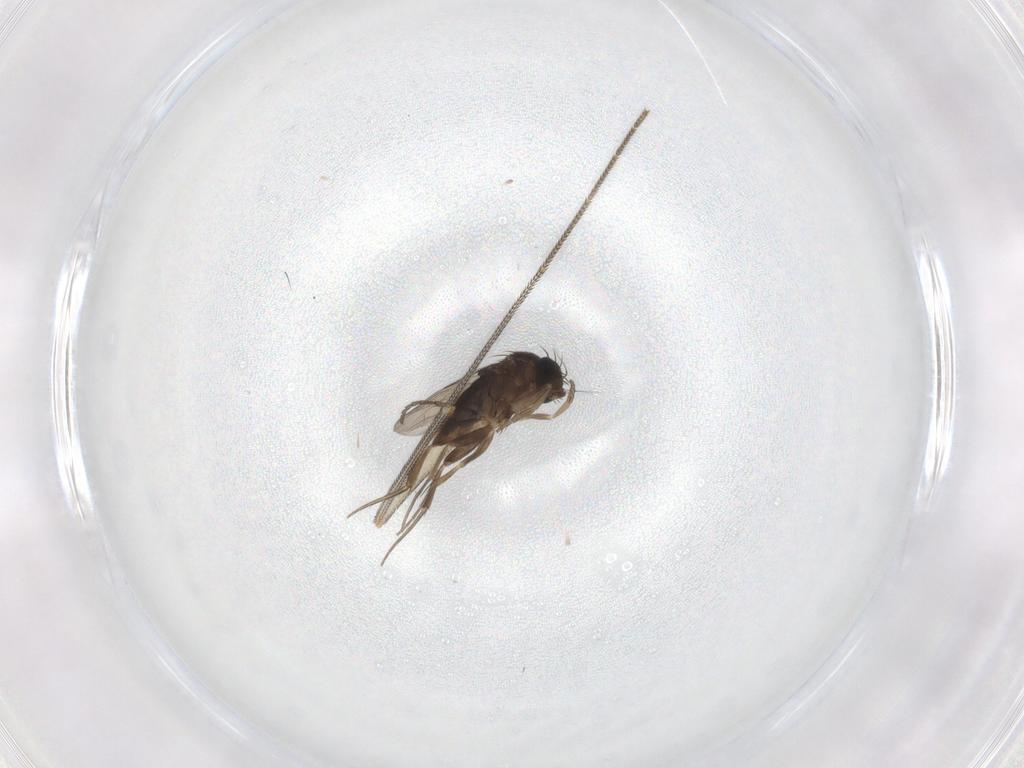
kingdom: Animalia
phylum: Arthropoda
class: Insecta
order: Diptera
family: Phoridae
